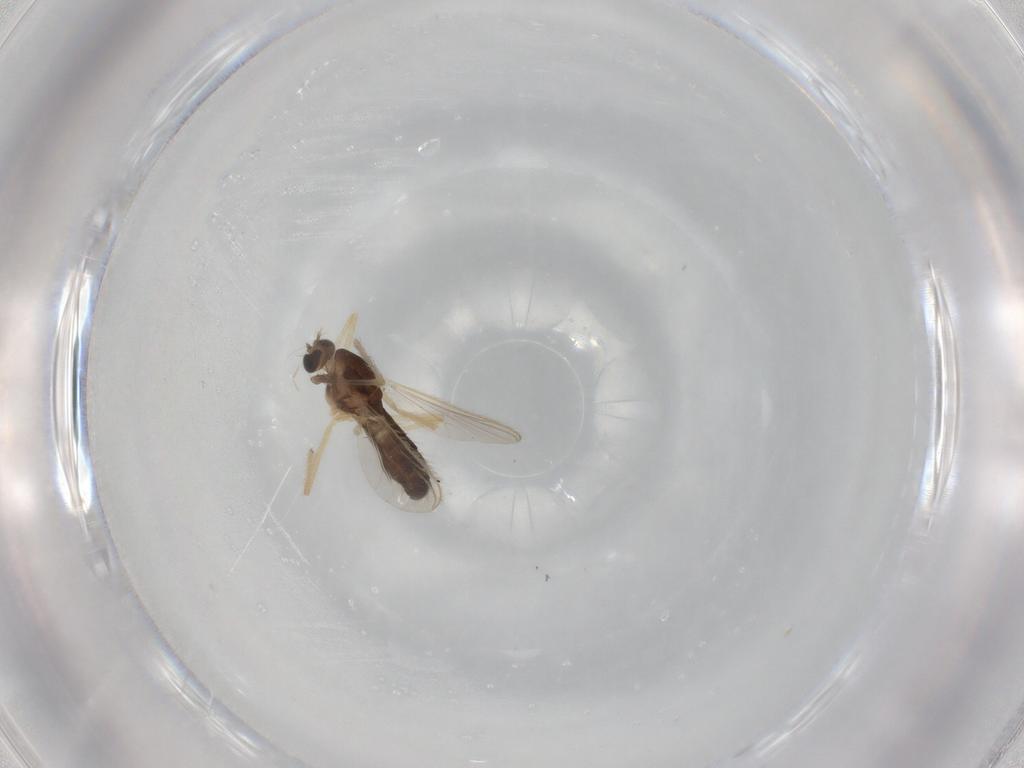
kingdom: Animalia
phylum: Arthropoda
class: Insecta
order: Diptera
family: Chironomidae
